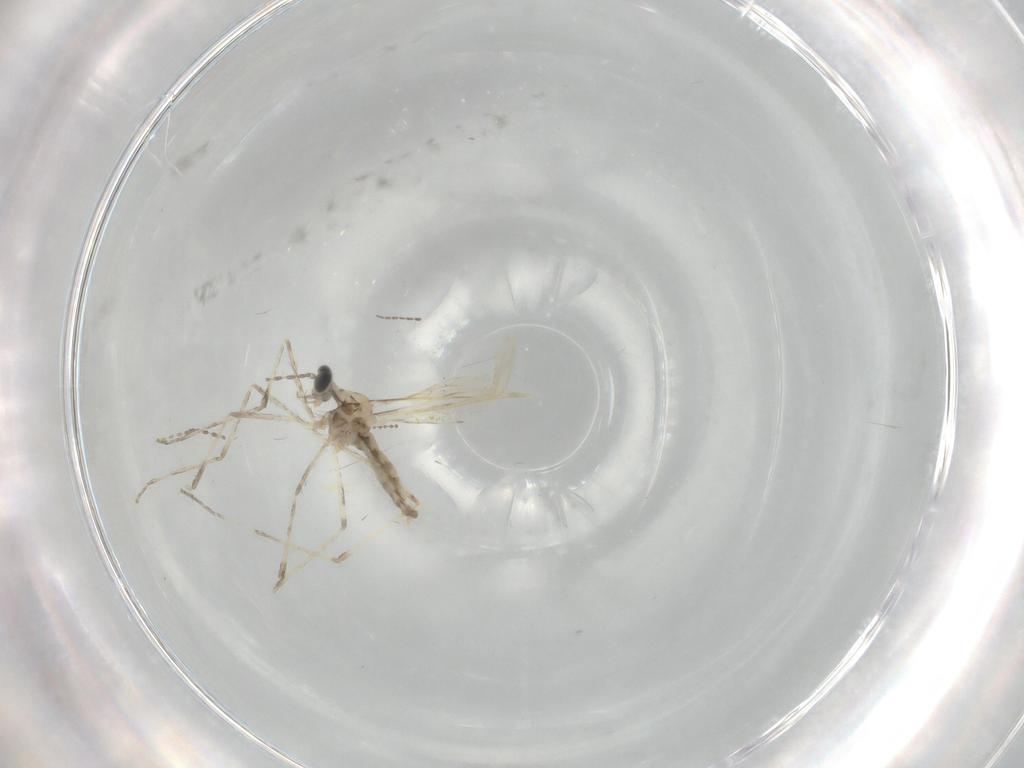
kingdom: Animalia
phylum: Arthropoda
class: Insecta
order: Diptera
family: Cecidomyiidae
